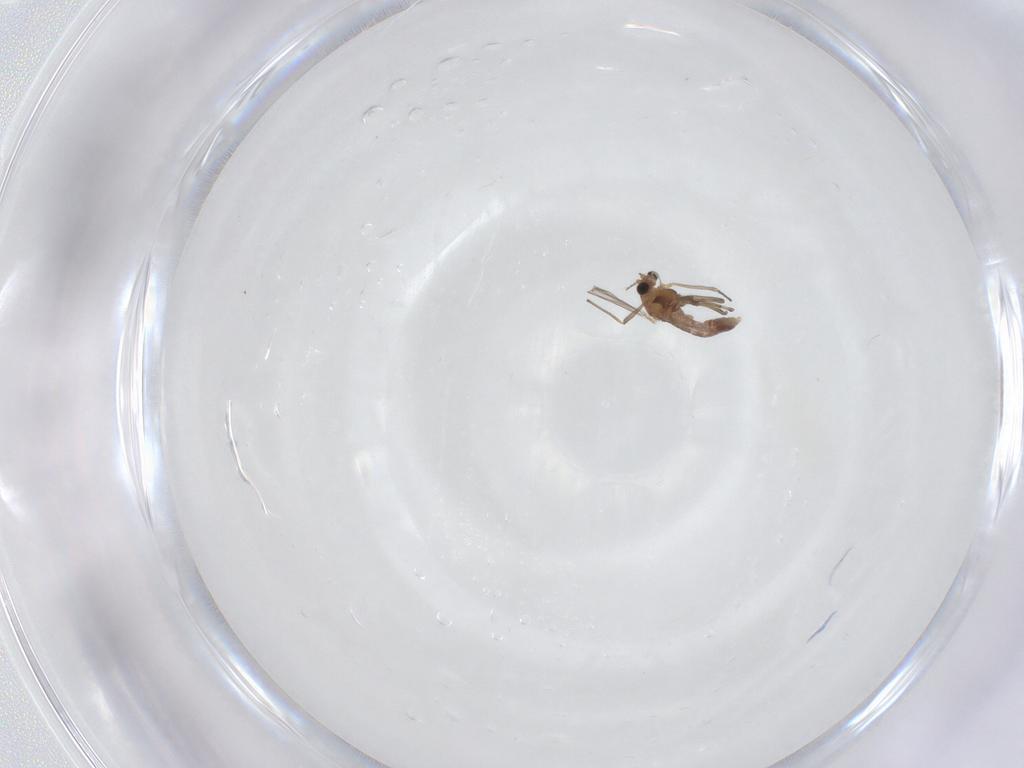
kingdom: Animalia
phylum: Arthropoda
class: Insecta
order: Diptera
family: Chironomidae
